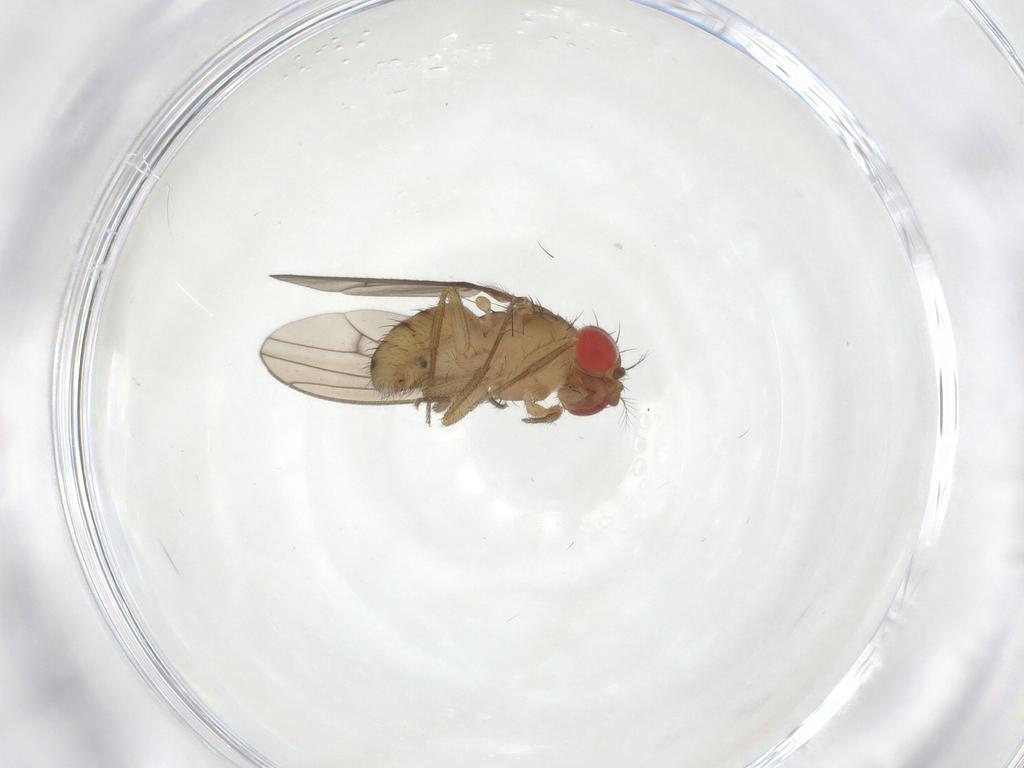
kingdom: Animalia
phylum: Arthropoda
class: Insecta
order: Diptera
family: Drosophilidae
